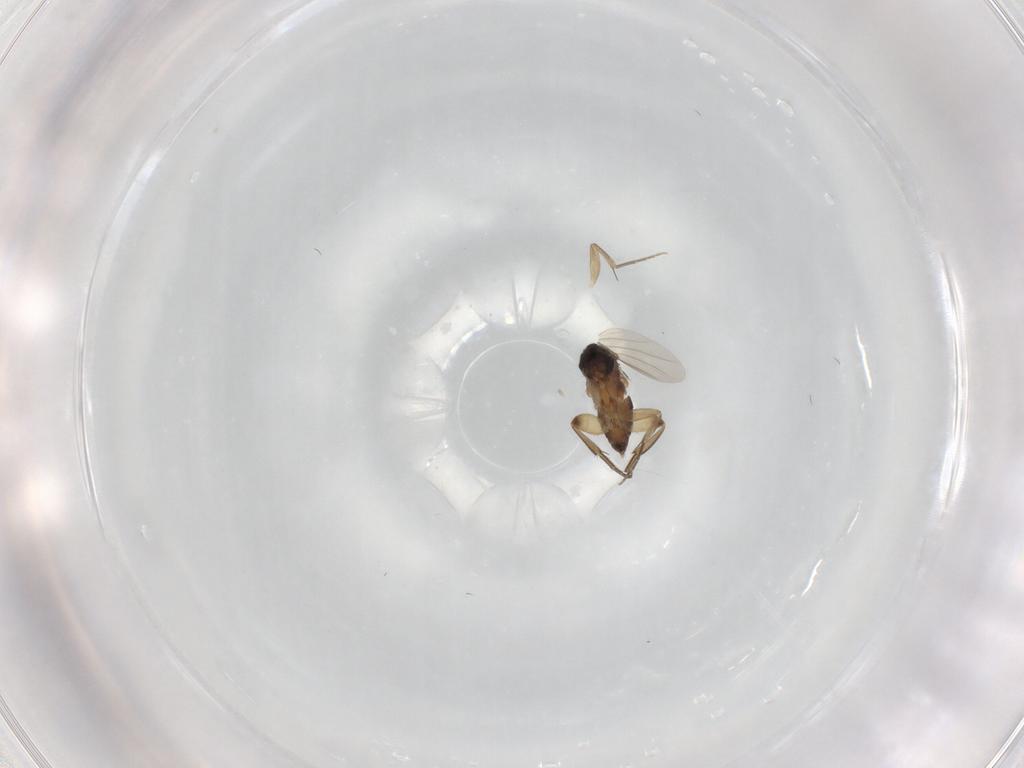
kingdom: Animalia
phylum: Arthropoda
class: Insecta
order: Diptera
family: Phoridae
